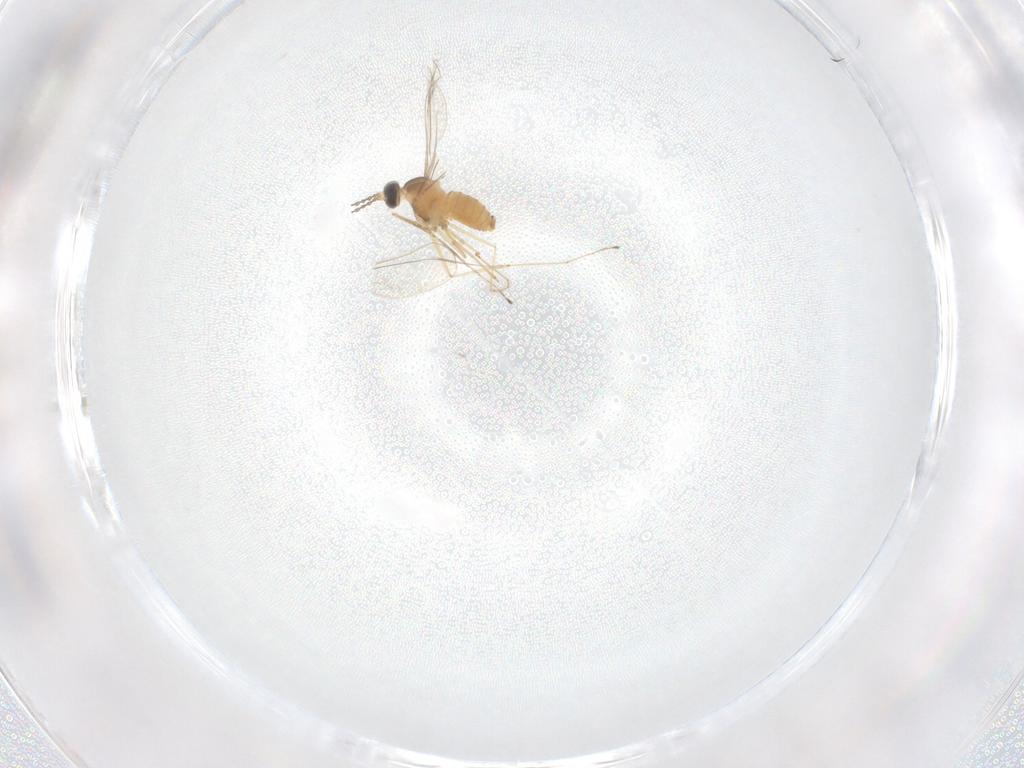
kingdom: Animalia
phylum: Arthropoda
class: Insecta
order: Diptera
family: Cecidomyiidae
